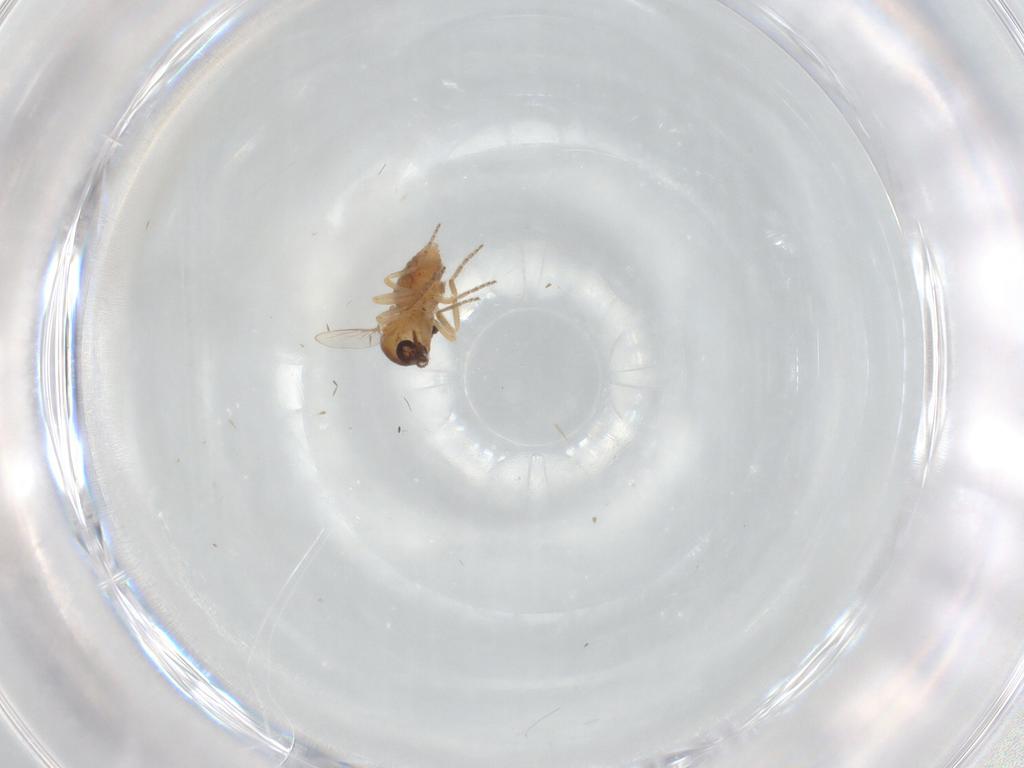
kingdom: Animalia
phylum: Arthropoda
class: Insecta
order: Diptera
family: Ceratopogonidae
